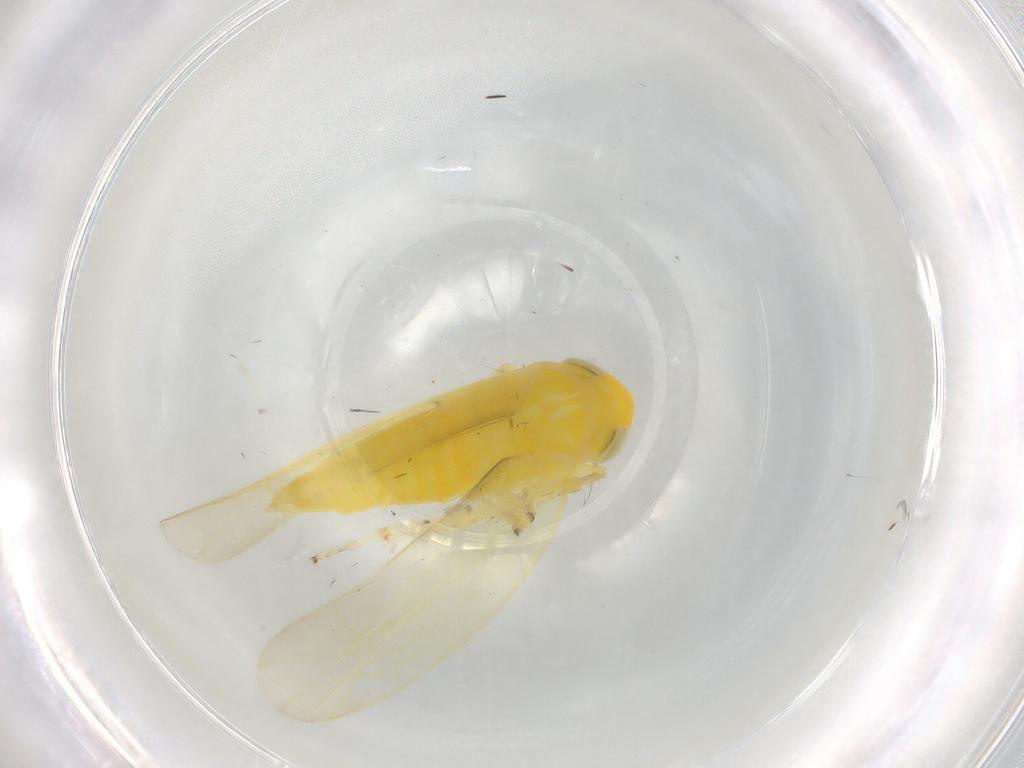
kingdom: Animalia
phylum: Arthropoda
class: Insecta
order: Hemiptera
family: Cicadellidae
